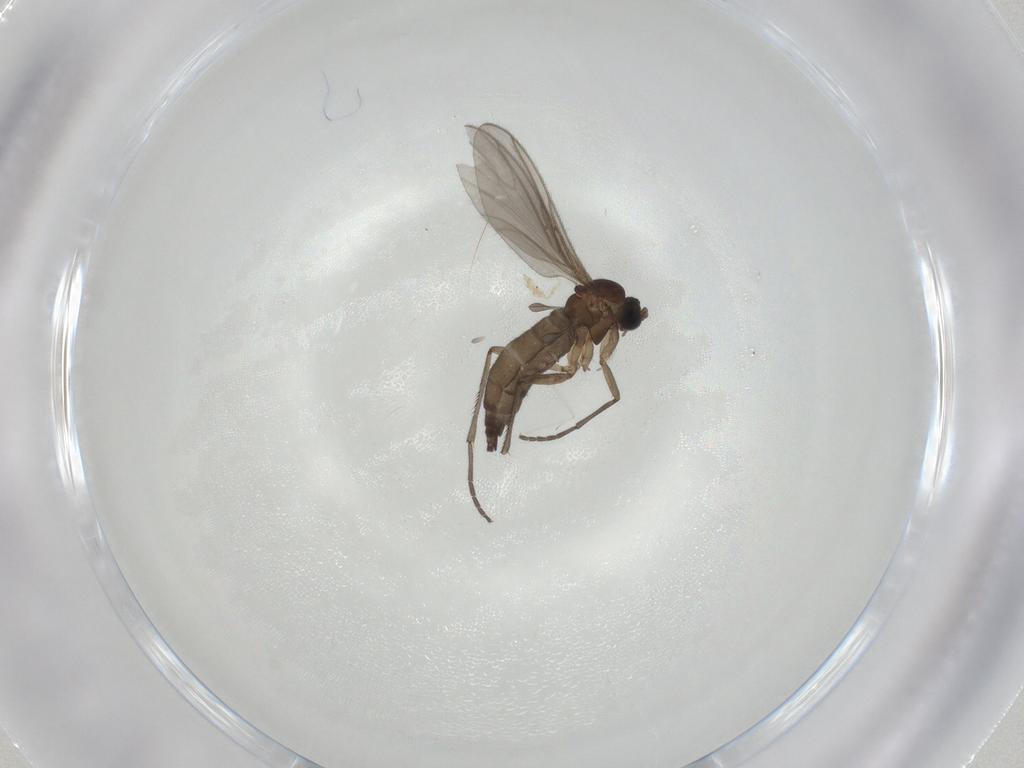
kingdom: Animalia
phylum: Arthropoda
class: Insecta
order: Diptera
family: Sciaridae
